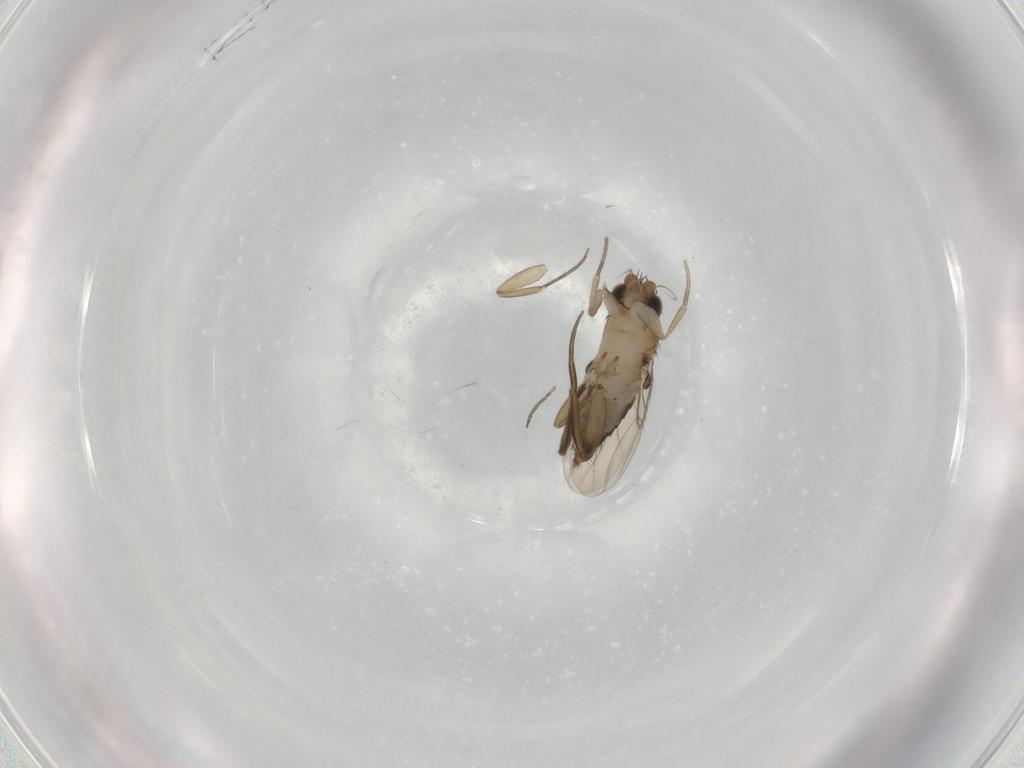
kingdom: Animalia
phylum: Arthropoda
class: Insecta
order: Diptera
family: Phoridae
